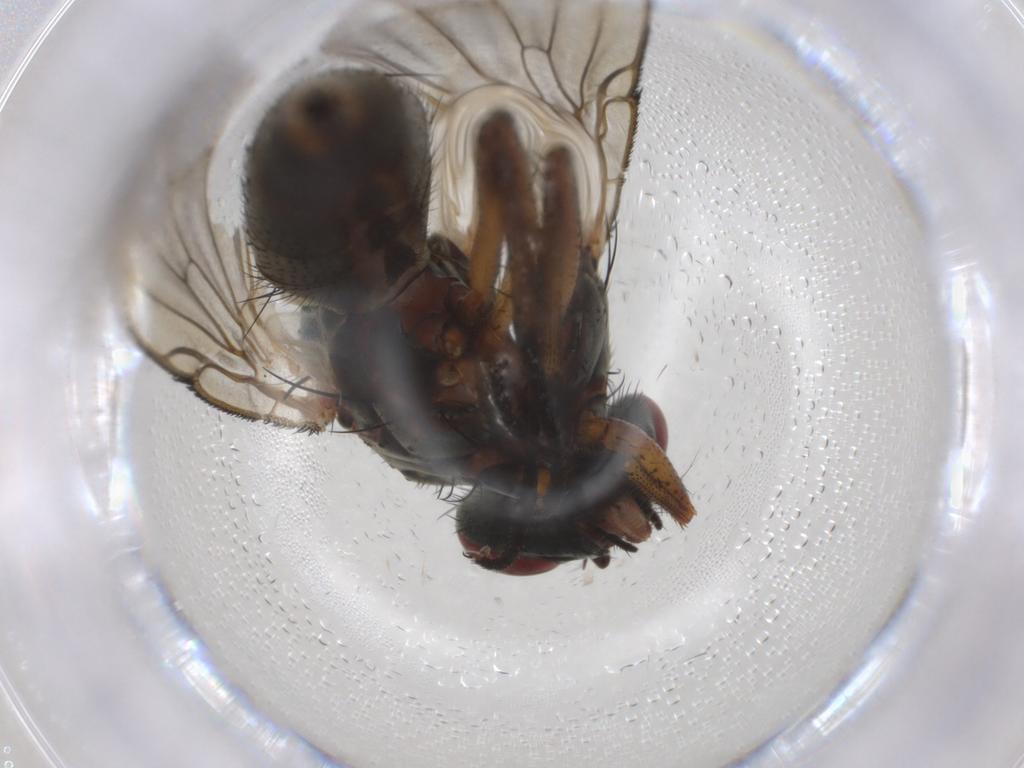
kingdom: Animalia
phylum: Arthropoda
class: Insecta
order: Diptera
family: Muscidae
